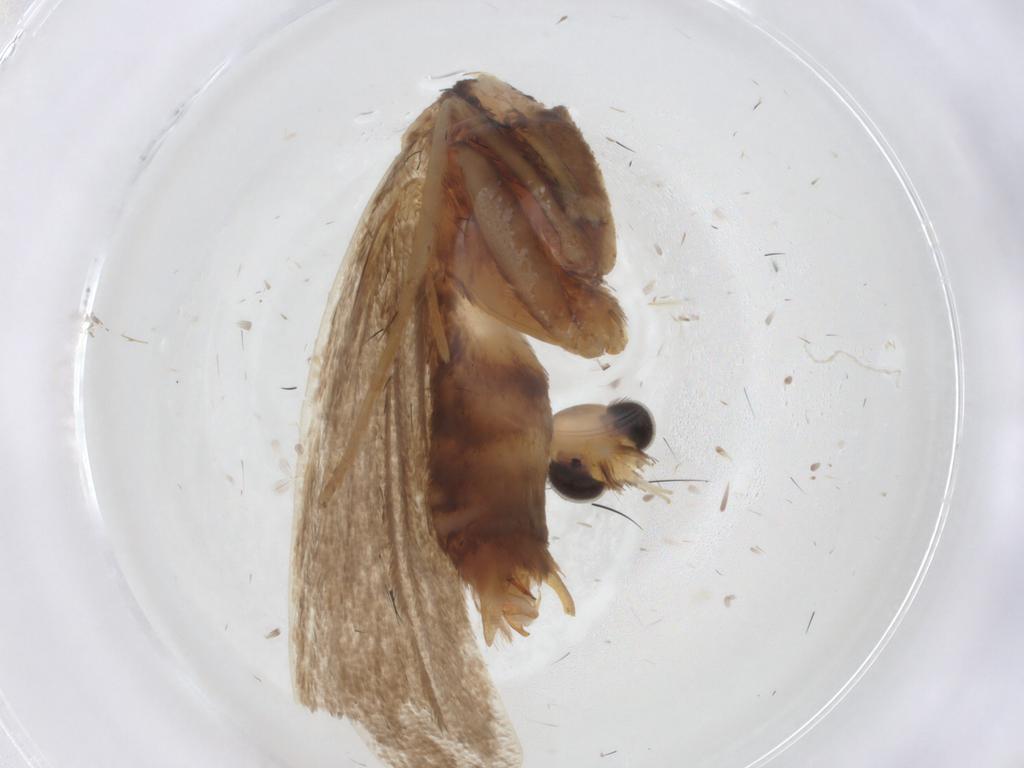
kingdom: Animalia
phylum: Arthropoda
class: Insecta
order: Lepidoptera
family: Lecithoceridae
